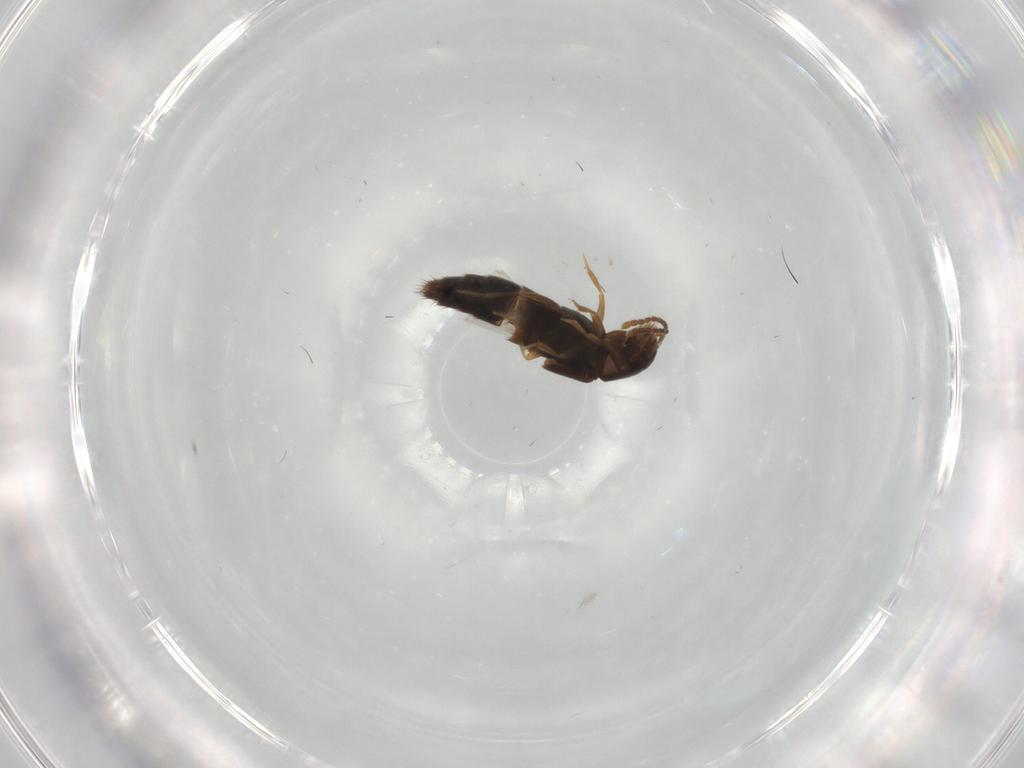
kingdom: Animalia
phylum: Arthropoda
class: Insecta
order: Coleoptera
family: Staphylinidae
